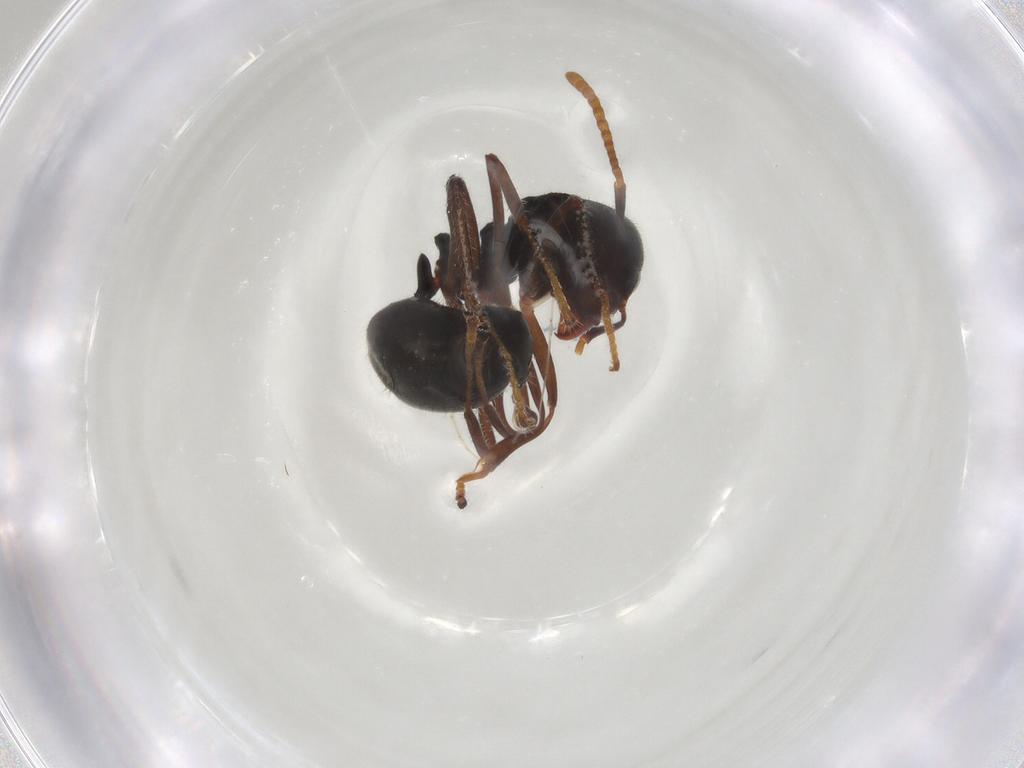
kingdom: Animalia
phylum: Arthropoda
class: Insecta
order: Hymenoptera
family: Formicidae
